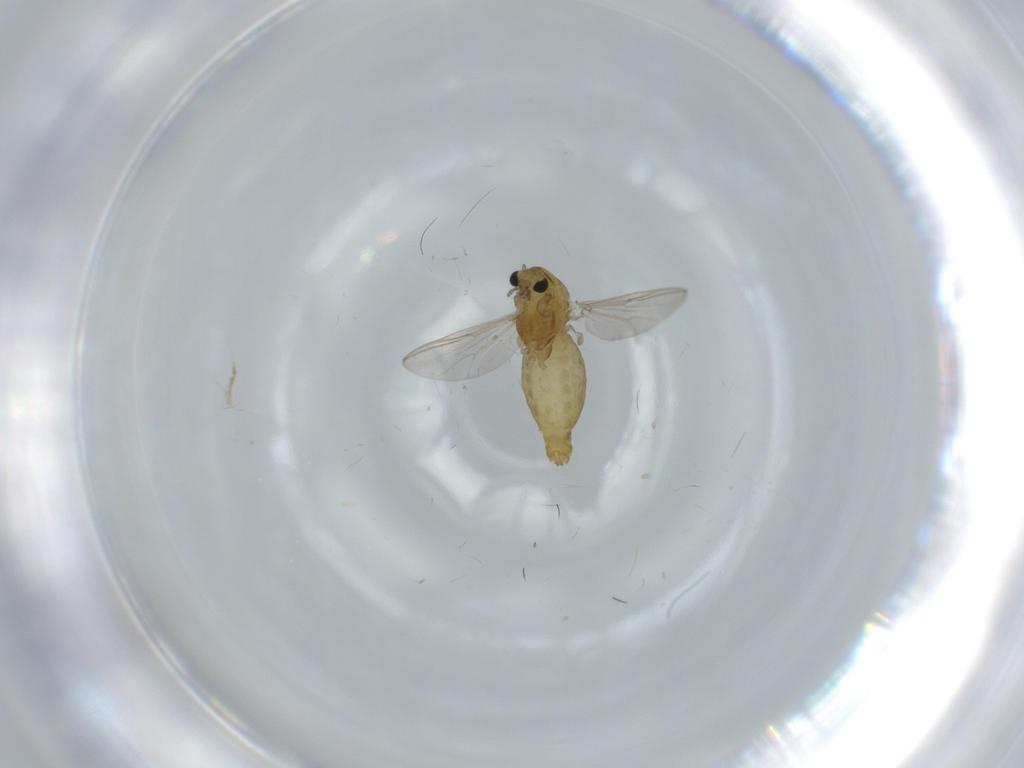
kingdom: Animalia
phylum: Arthropoda
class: Insecta
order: Diptera
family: Chironomidae
